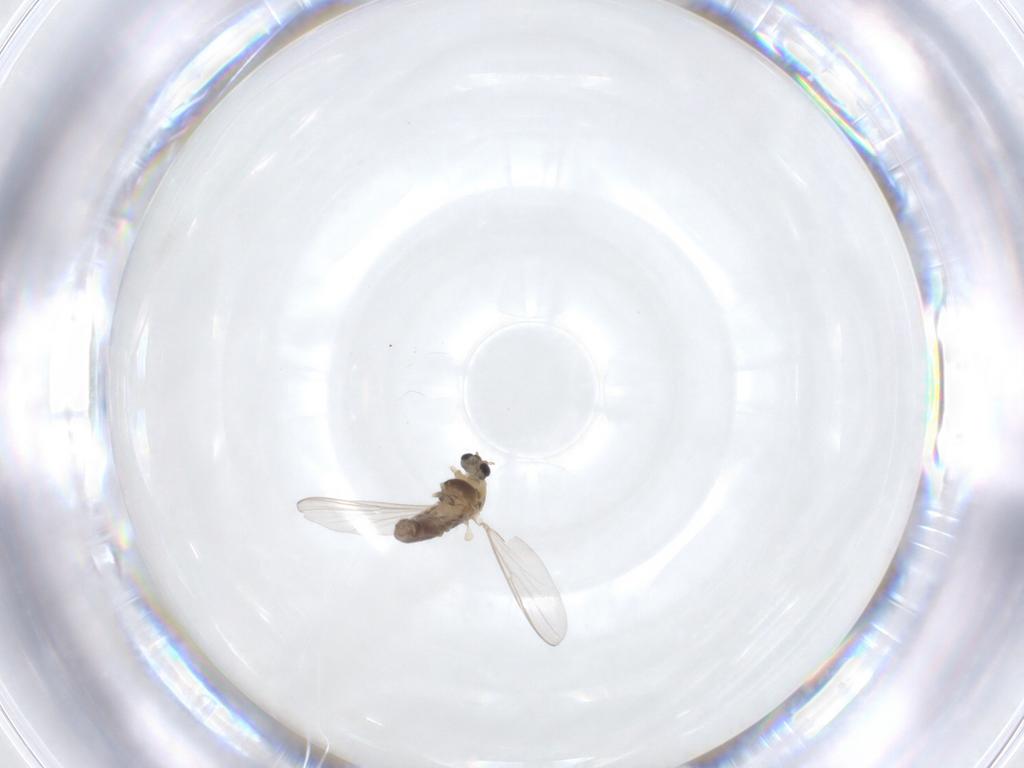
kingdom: Animalia
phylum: Arthropoda
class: Insecta
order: Diptera
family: Chironomidae
